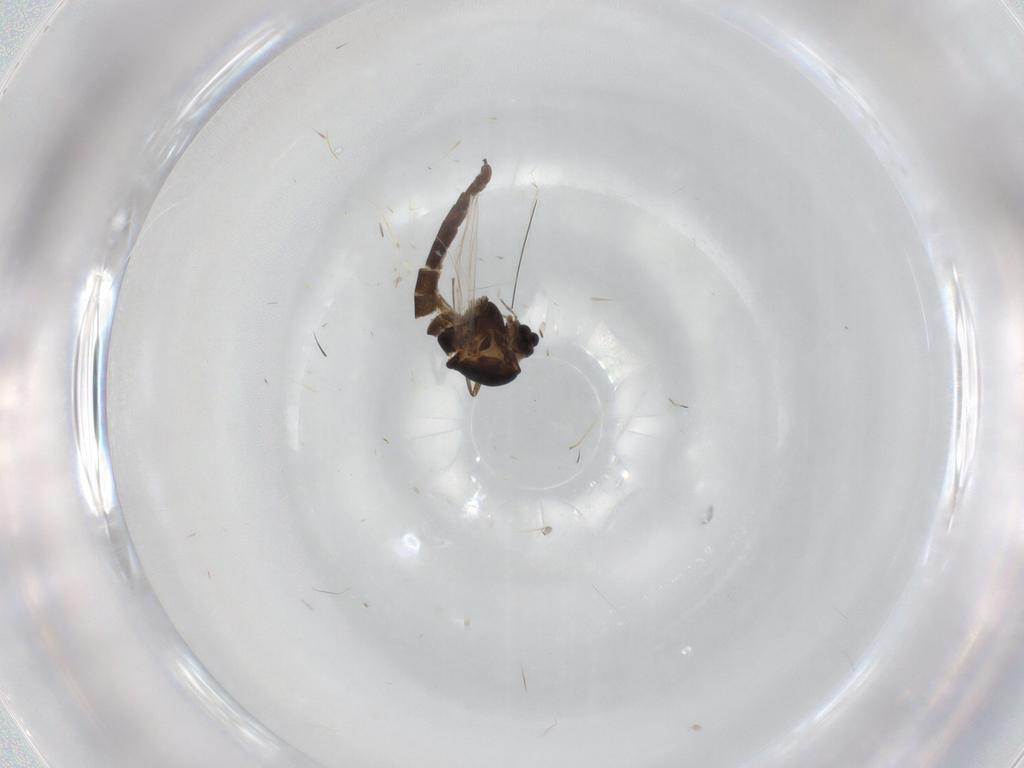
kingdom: Animalia
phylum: Arthropoda
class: Insecta
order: Diptera
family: Chironomidae
